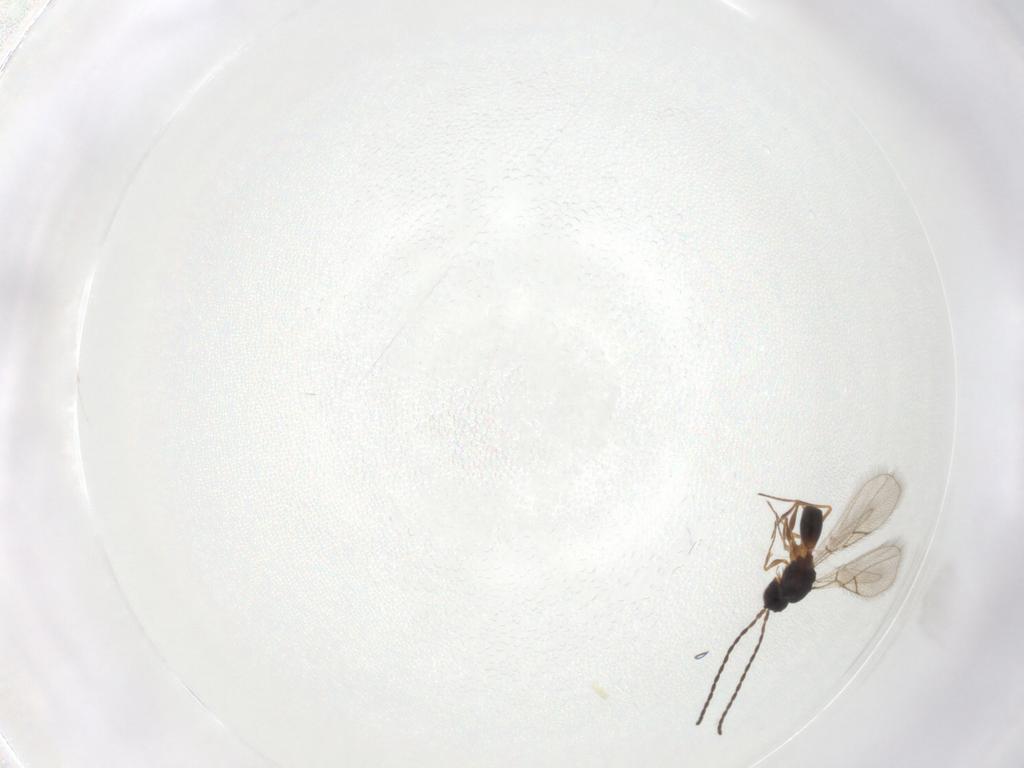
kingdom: Animalia
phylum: Arthropoda
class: Insecta
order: Hymenoptera
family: Figitidae
